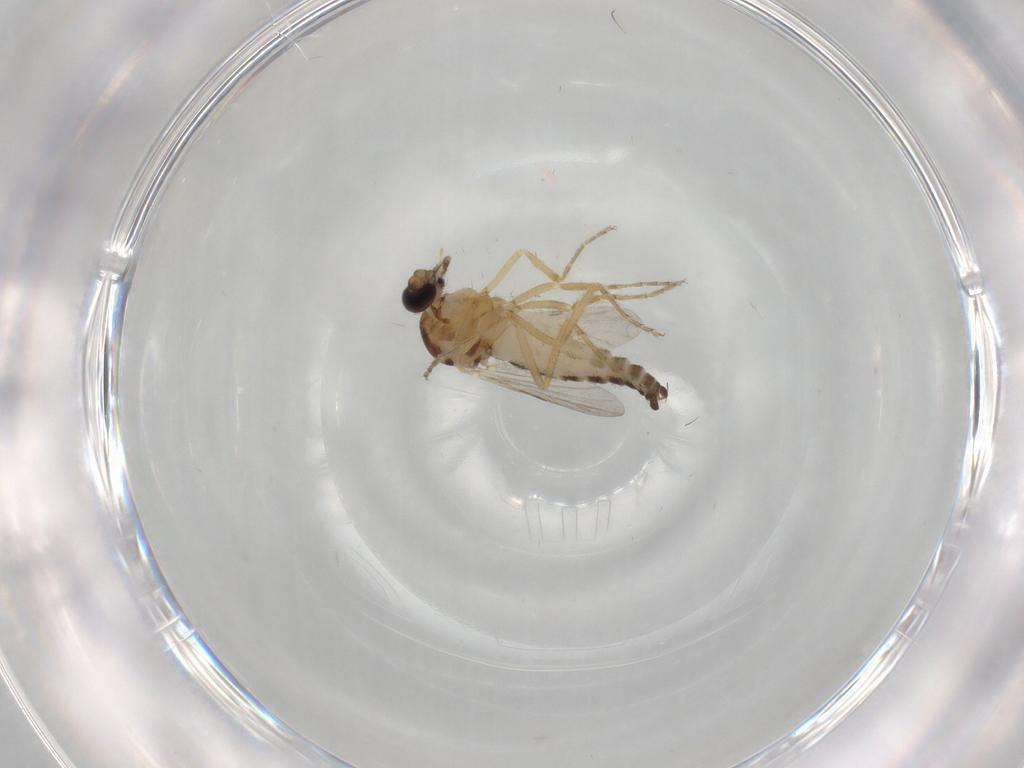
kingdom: Animalia
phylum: Arthropoda
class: Insecta
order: Diptera
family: Ceratopogonidae
